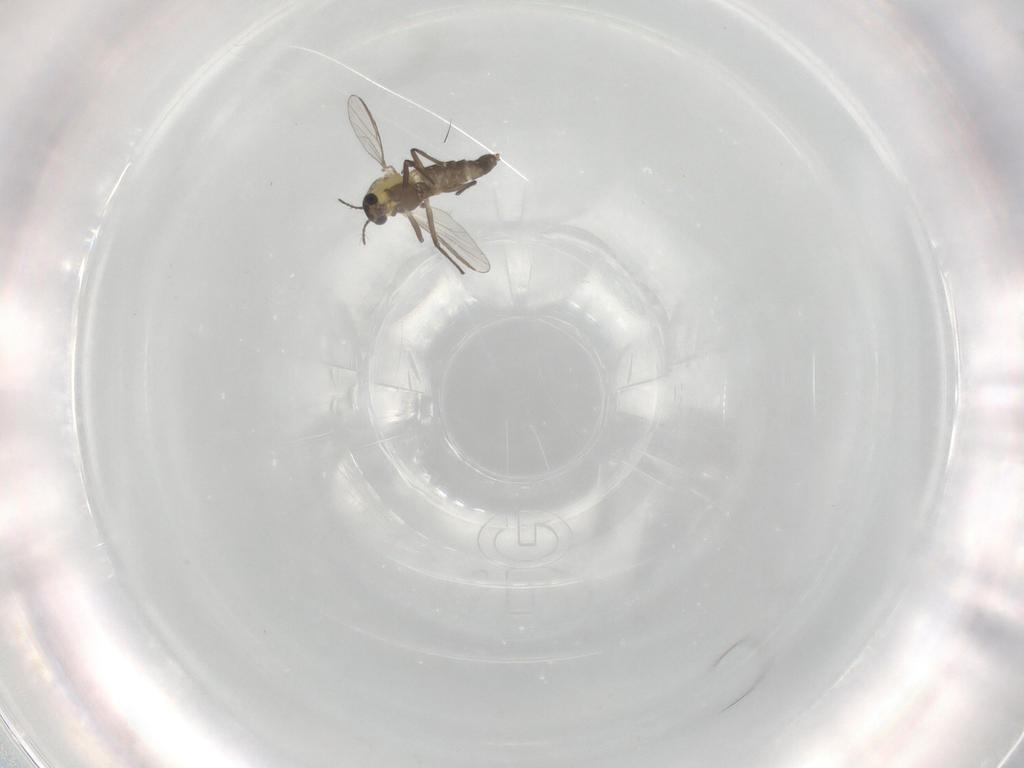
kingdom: Animalia
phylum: Arthropoda
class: Insecta
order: Diptera
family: Chironomidae
